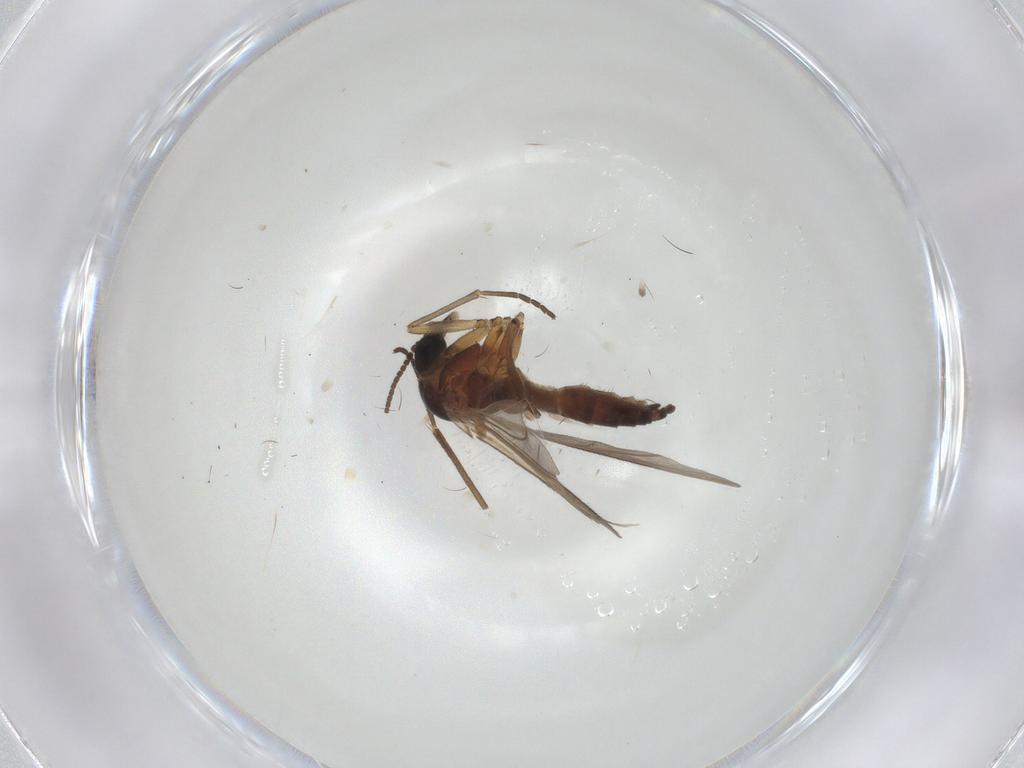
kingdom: Animalia
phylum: Arthropoda
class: Insecta
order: Diptera
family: Sciaridae
